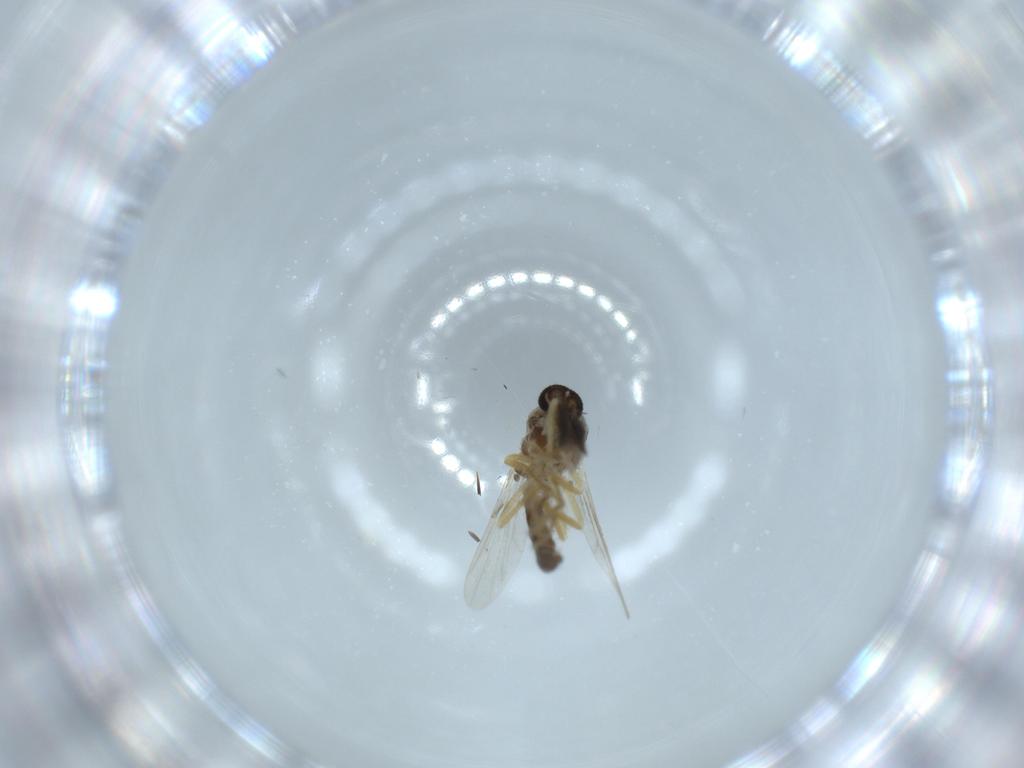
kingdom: Animalia
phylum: Arthropoda
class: Insecta
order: Diptera
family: Ceratopogonidae
